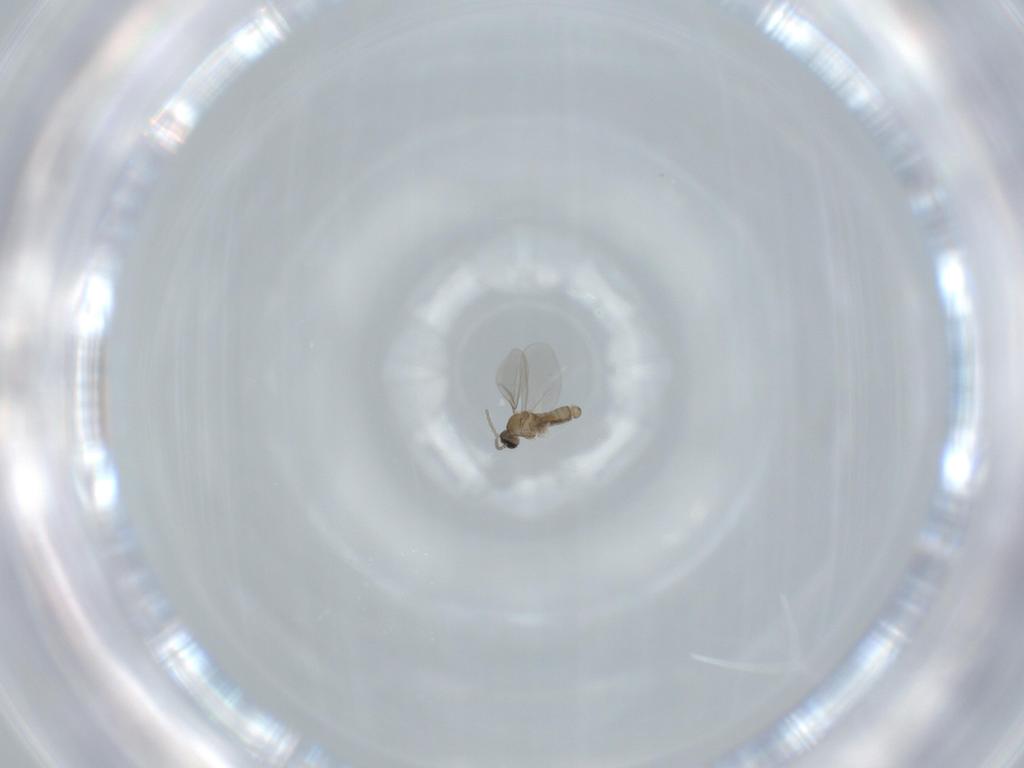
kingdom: Animalia
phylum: Arthropoda
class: Insecta
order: Diptera
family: Cecidomyiidae
